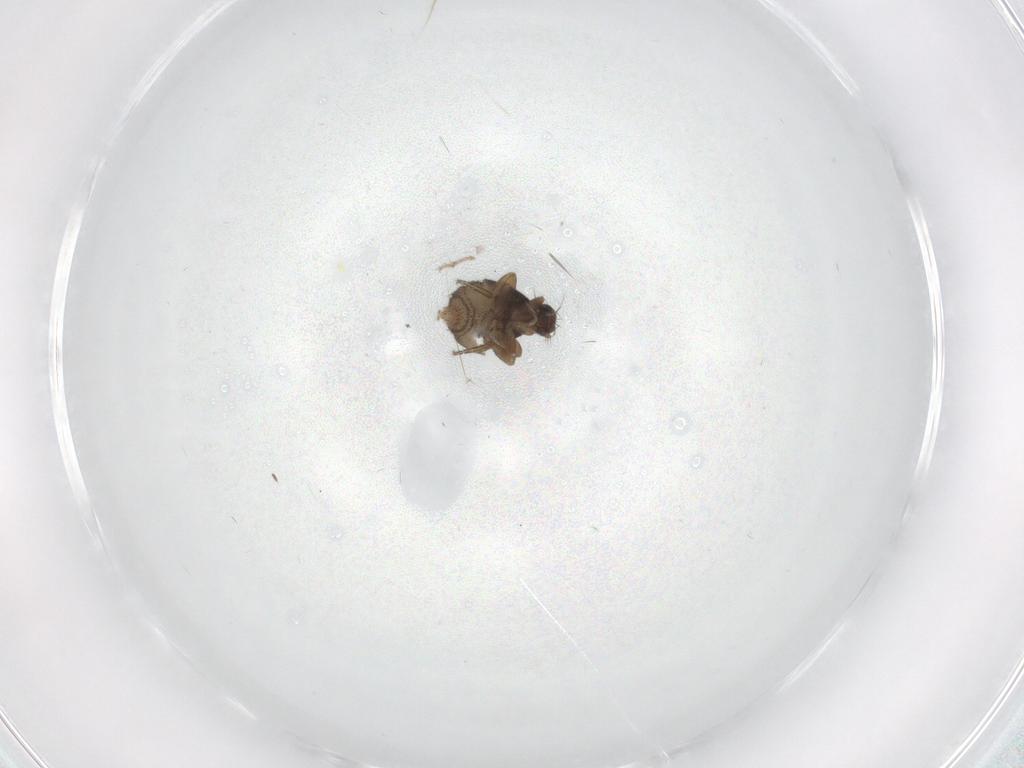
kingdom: Animalia
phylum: Arthropoda
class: Insecta
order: Diptera
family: Phoridae
